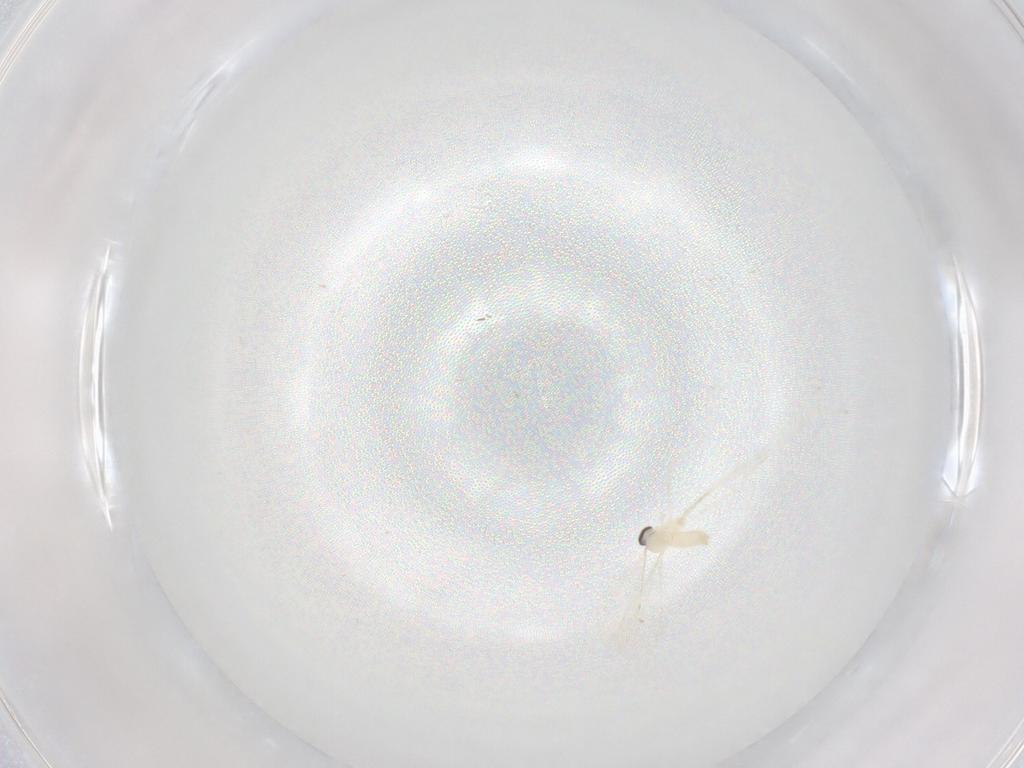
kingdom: Animalia
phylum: Arthropoda
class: Insecta
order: Diptera
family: Cecidomyiidae
